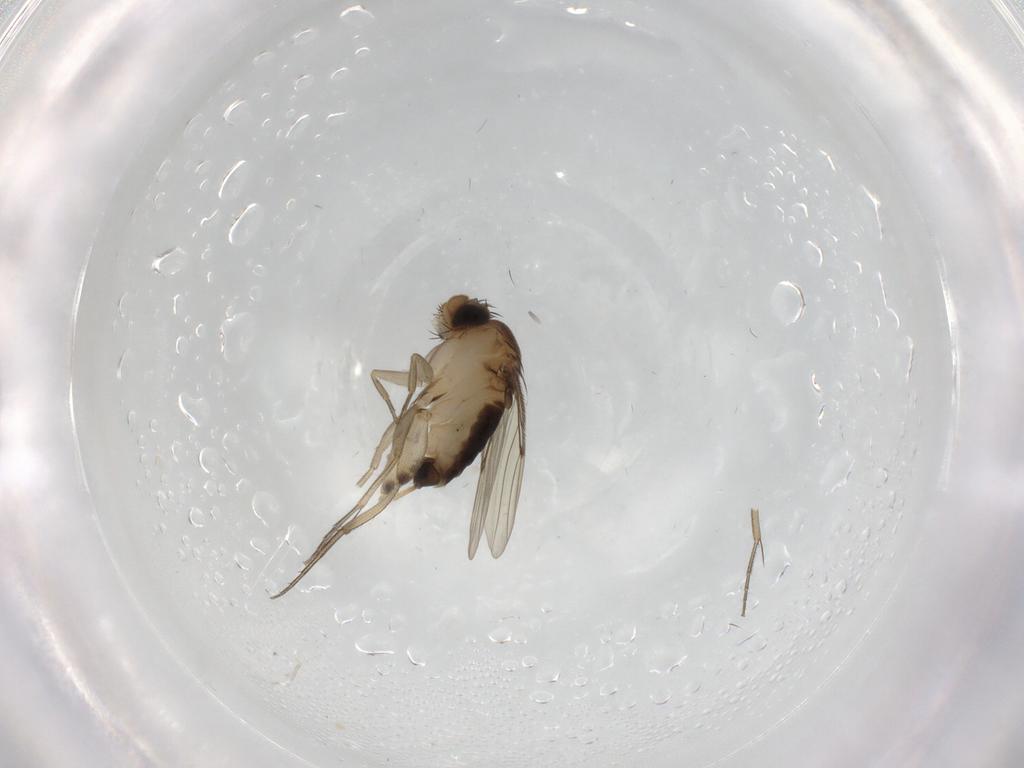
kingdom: Animalia
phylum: Arthropoda
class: Insecta
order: Diptera
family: Phoridae
